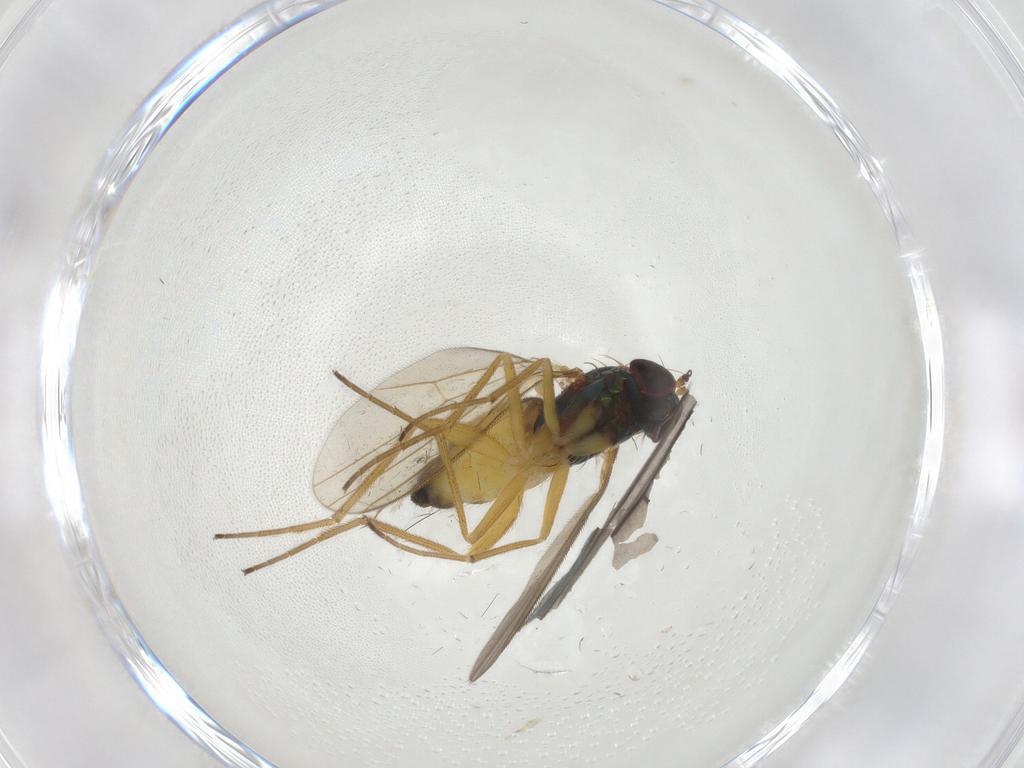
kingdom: Animalia
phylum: Arthropoda
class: Insecta
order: Diptera
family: Limoniidae
